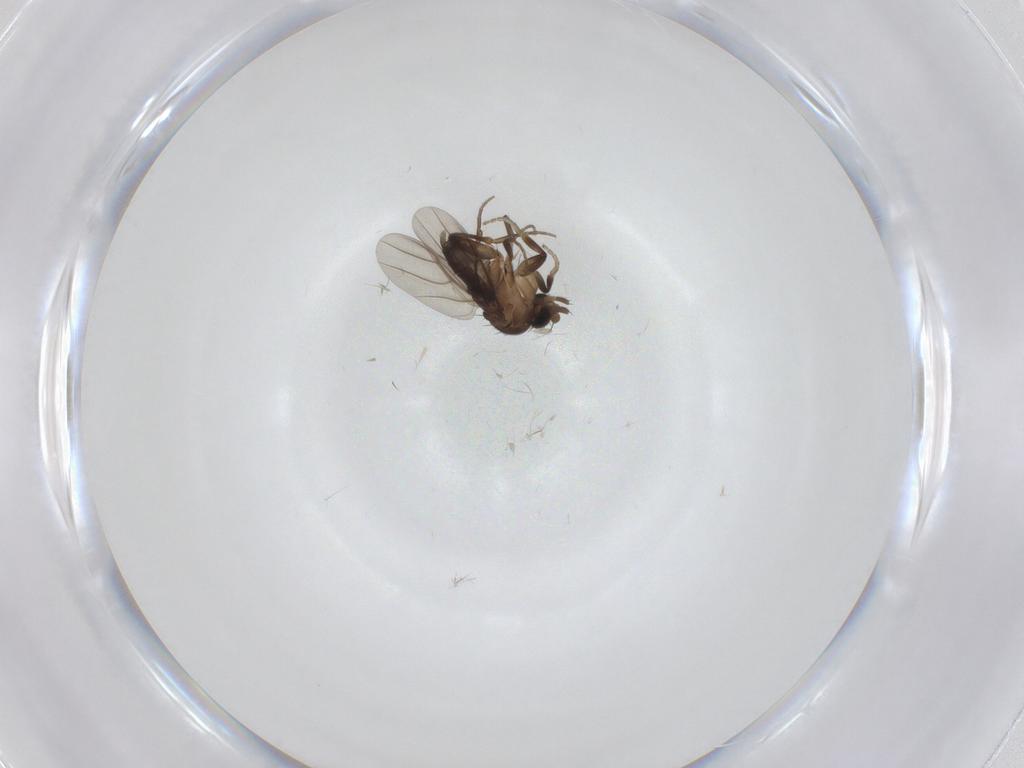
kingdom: Animalia
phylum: Arthropoda
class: Insecta
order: Diptera
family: Phoridae
